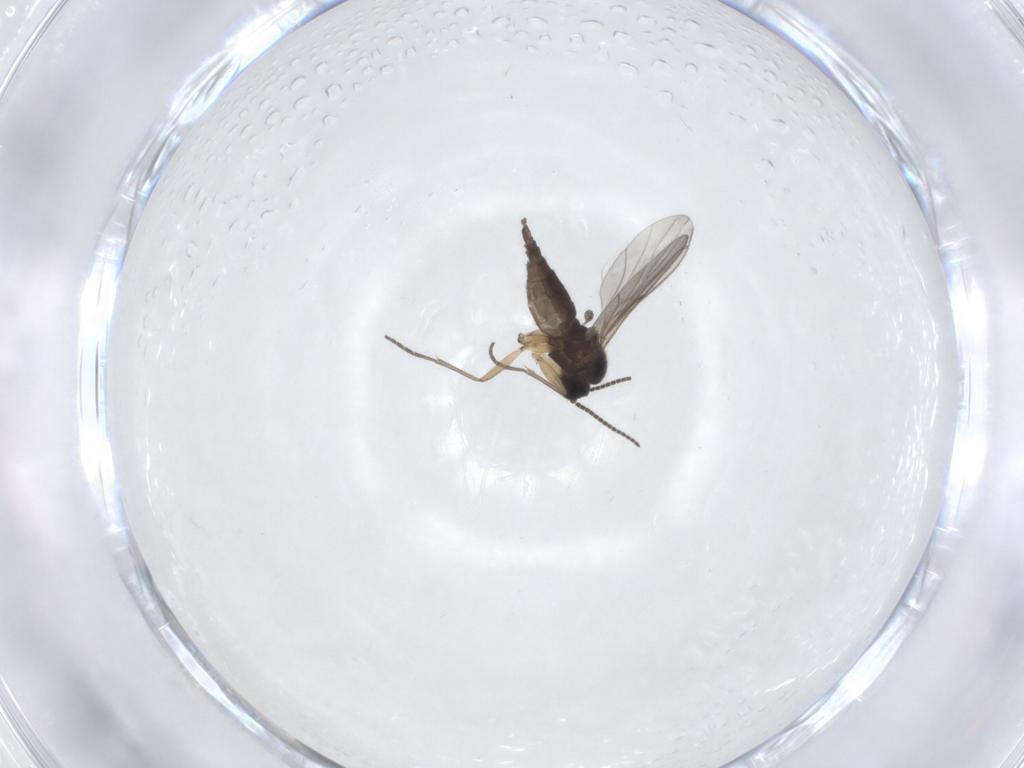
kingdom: Animalia
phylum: Arthropoda
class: Insecta
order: Diptera
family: Sciaridae
